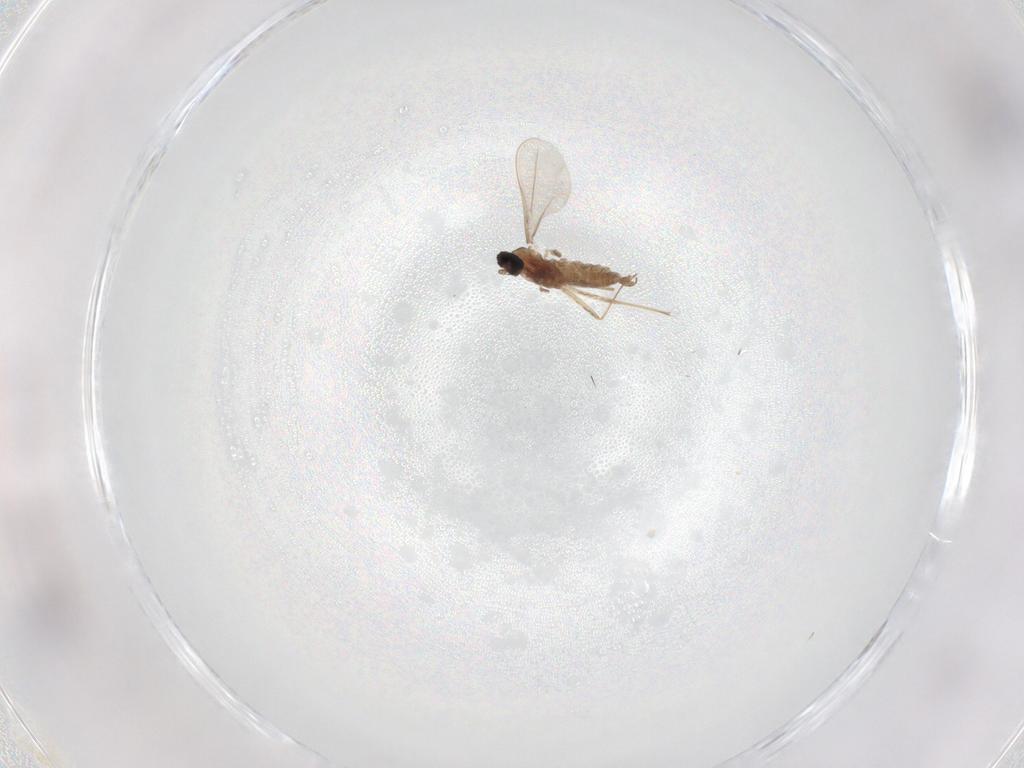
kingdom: Animalia
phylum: Arthropoda
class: Insecta
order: Diptera
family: Cecidomyiidae
